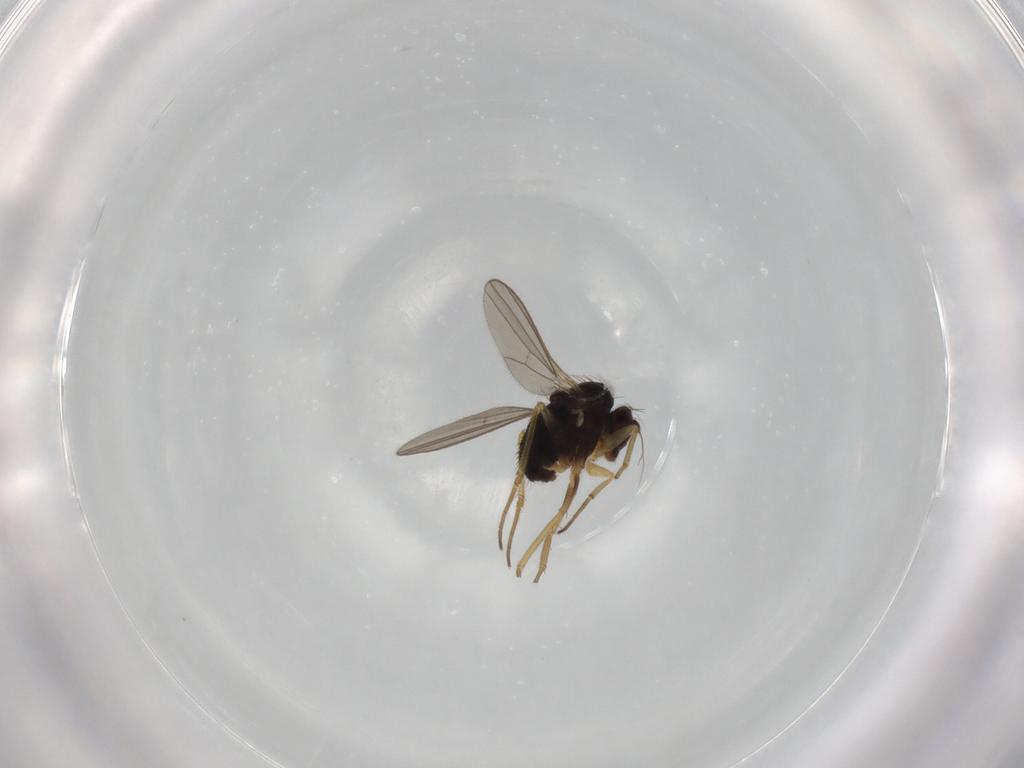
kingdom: Animalia
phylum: Arthropoda
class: Insecta
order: Diptera
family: Dolichopodidae
